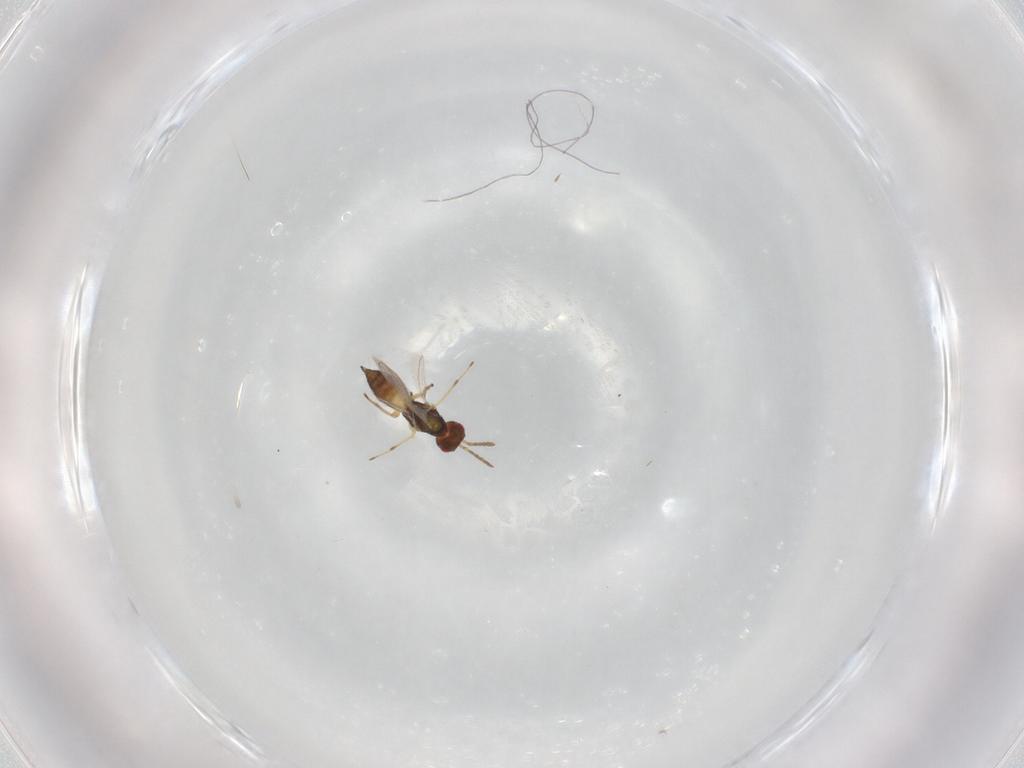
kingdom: Animalia
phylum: Arthropoda
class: Insecta
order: Hymenoptera
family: Eulophidae
